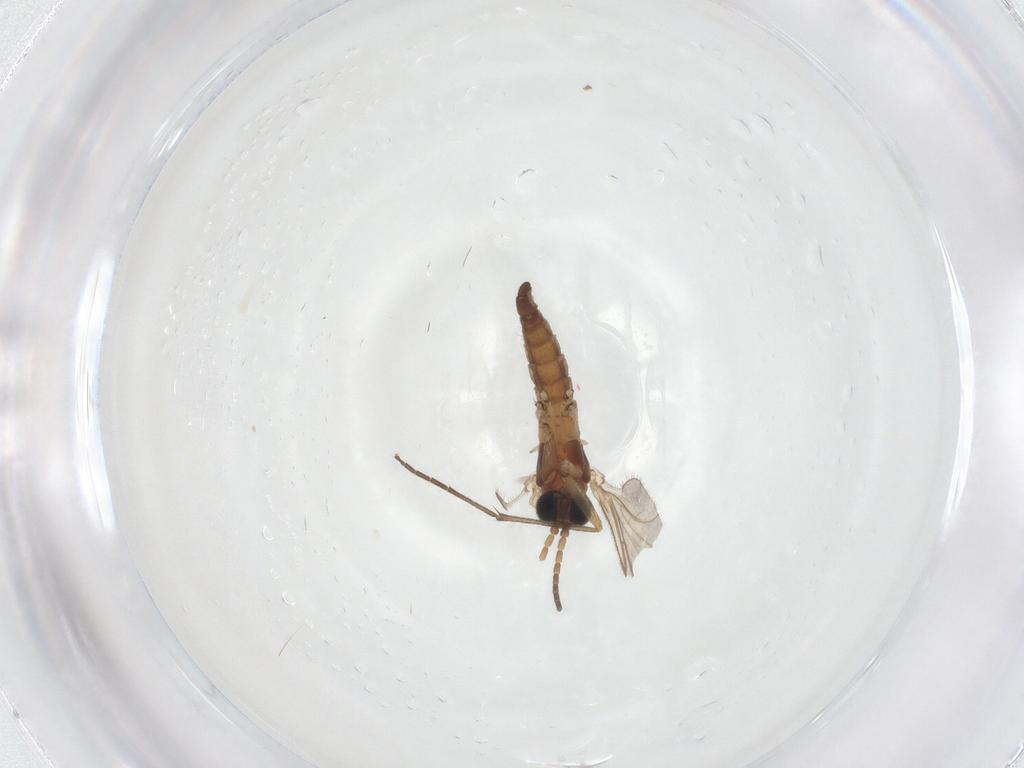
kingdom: Animalia
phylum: Arthropoda
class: Insecta
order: Diptera
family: Sciaridae
